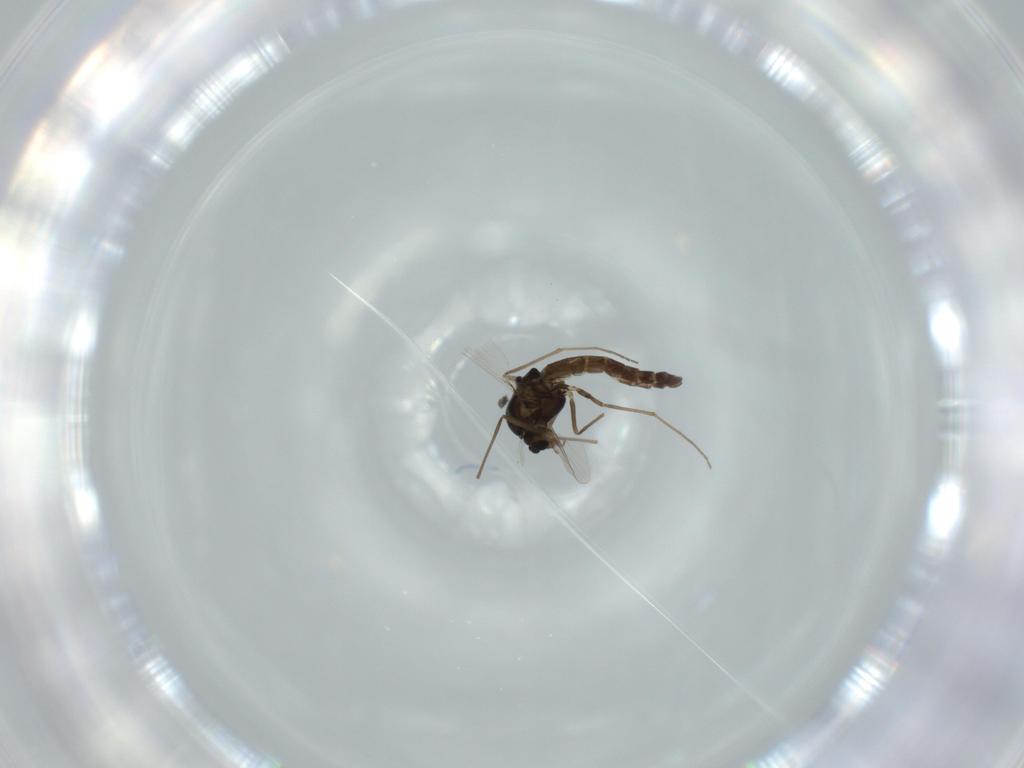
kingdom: Animalia
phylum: Arthropoda
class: Insecta
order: Diptera
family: Chironomidae
